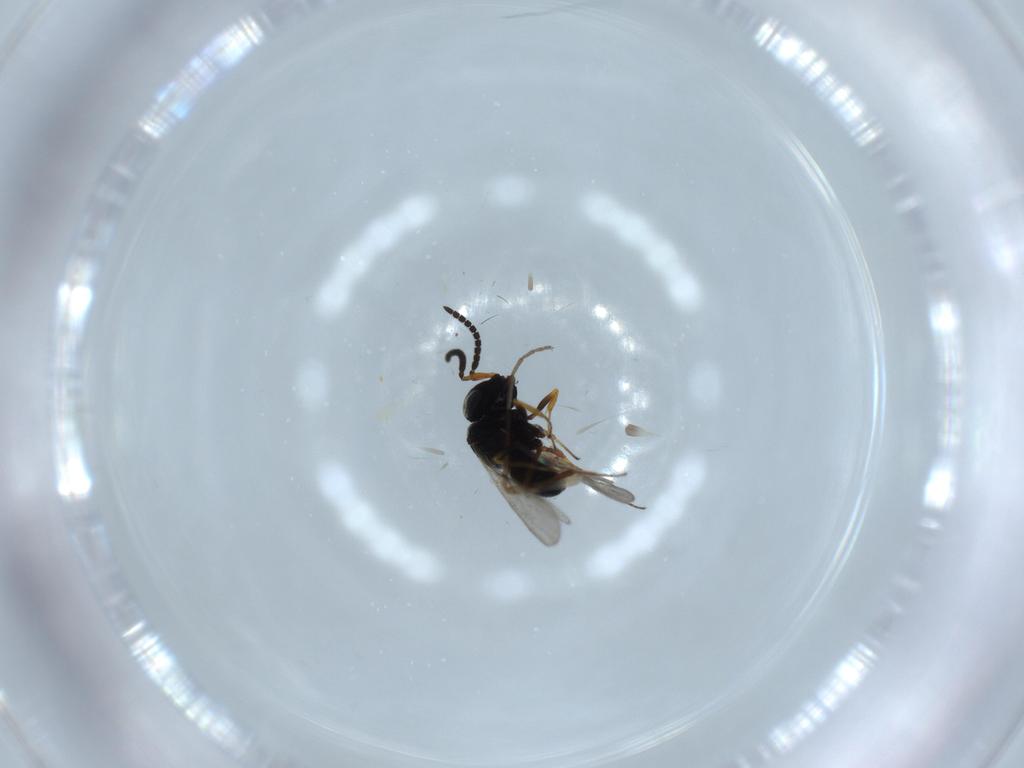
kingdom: Animalia
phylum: Arthropoda
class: Insecta
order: Hymenoptera
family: Scelionidae
